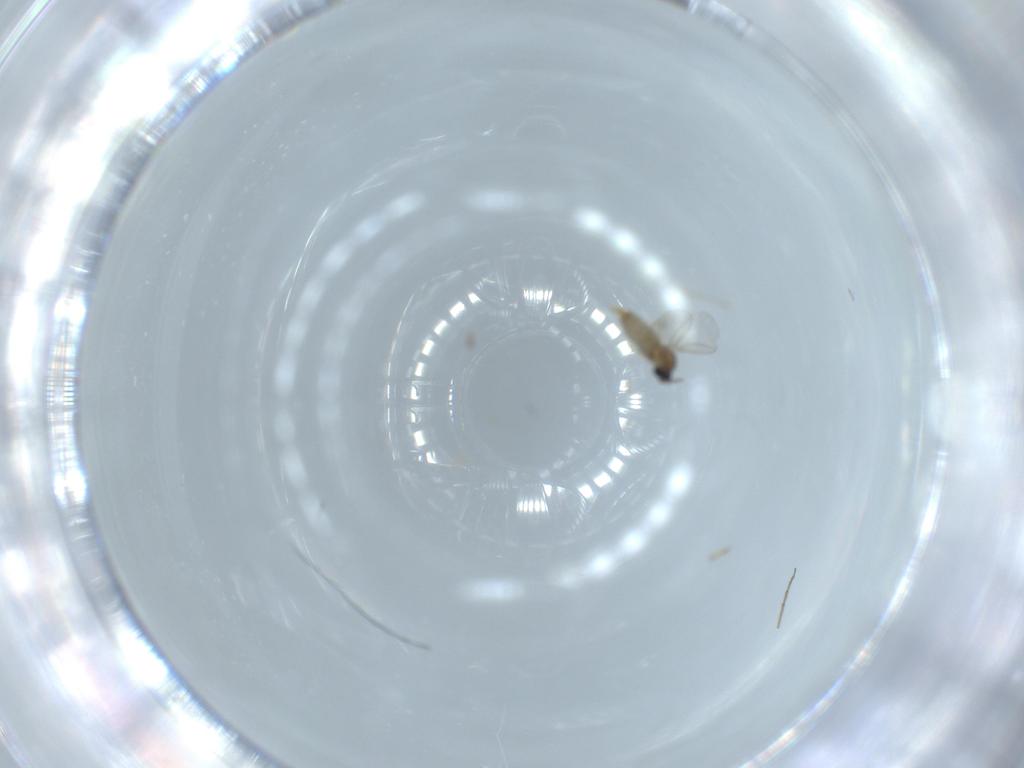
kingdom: Animalia
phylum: Arthropoda
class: Insecta
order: Diptera
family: Cecidomyiidae
